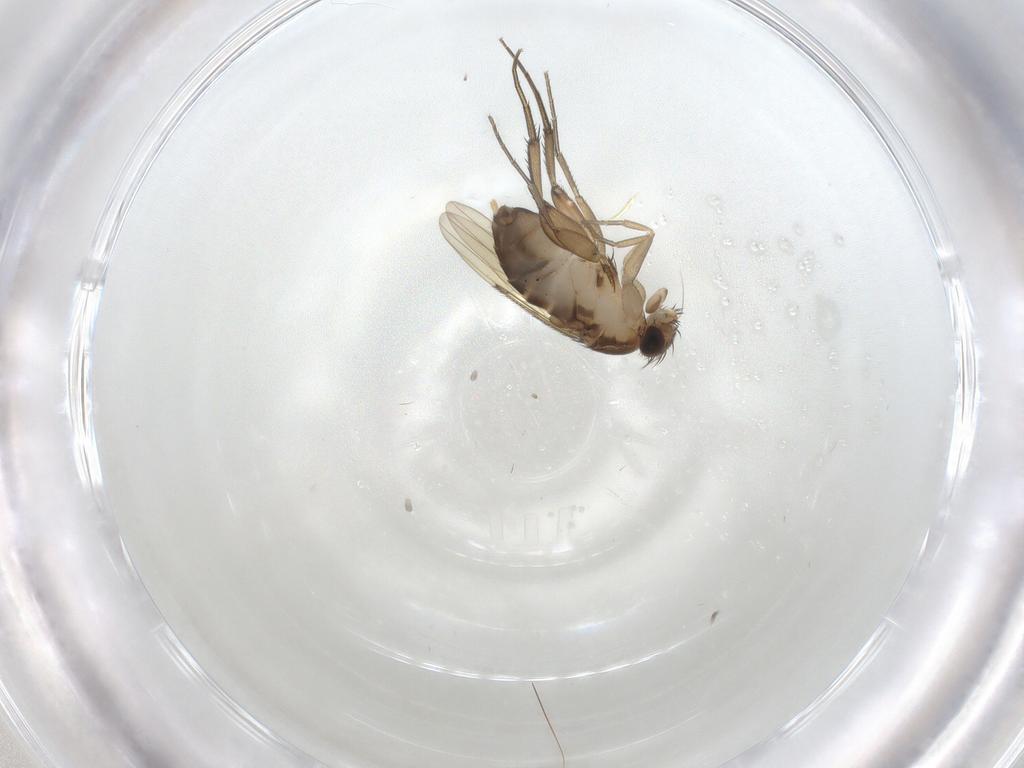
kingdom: Animalia
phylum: Arthropoda
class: Insecta
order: Diptera
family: Phoridae
